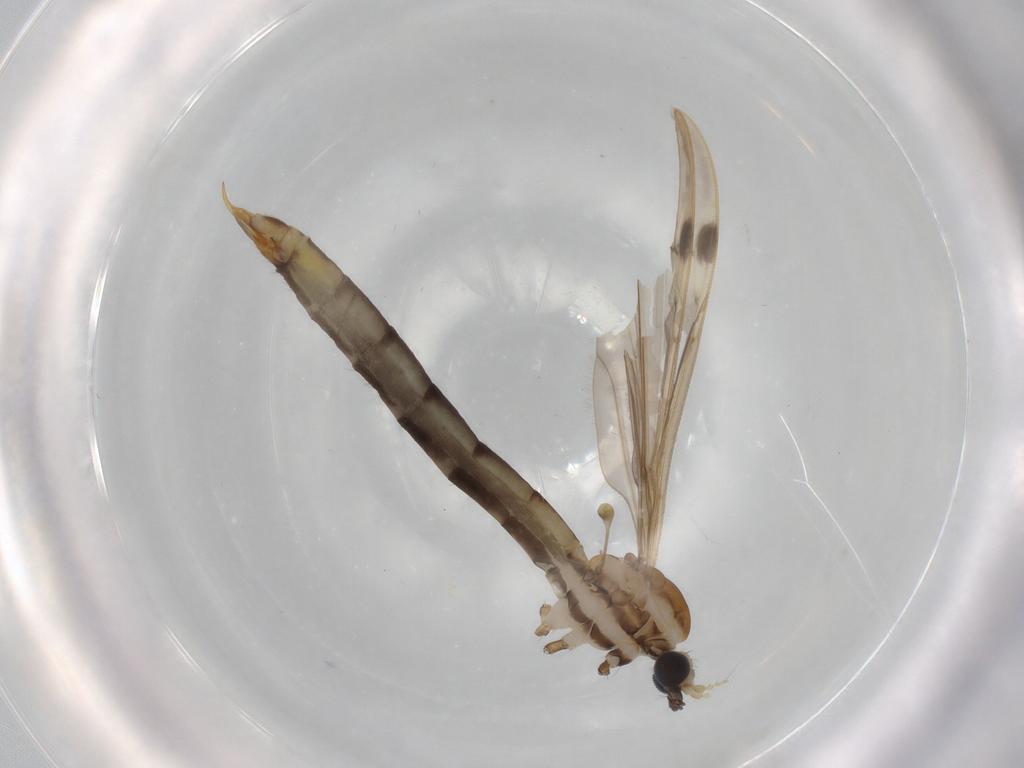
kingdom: Animalia
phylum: Arthropoda
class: Insecta
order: Diptera
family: Limoniidae
